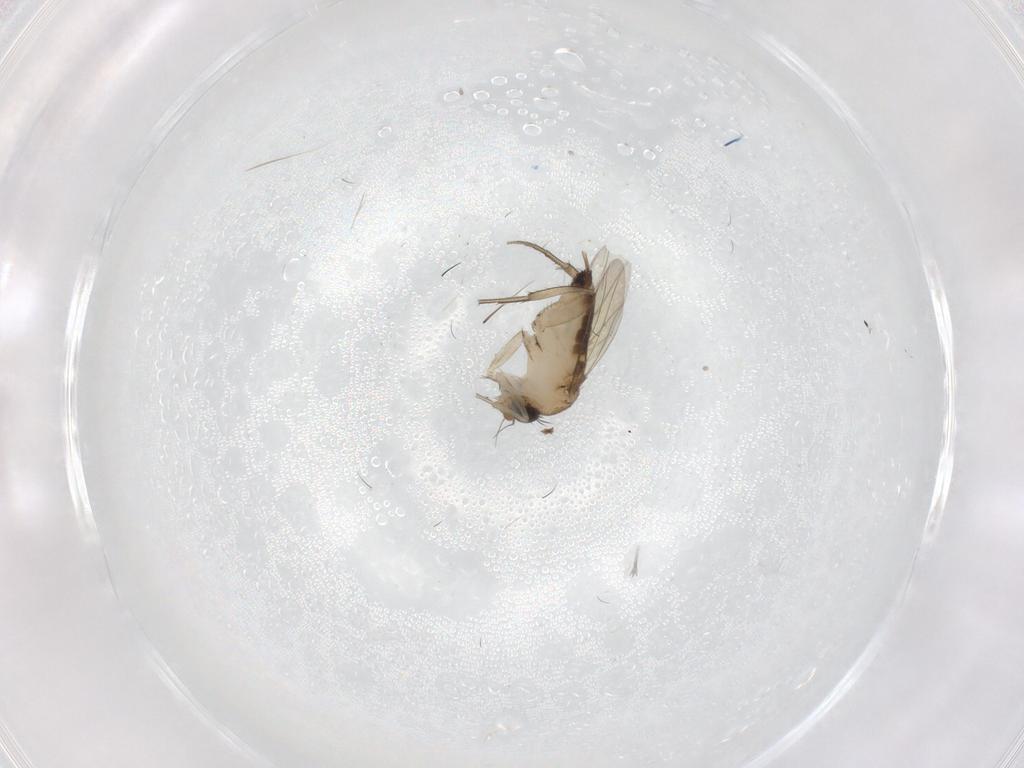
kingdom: Animalia
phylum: Arthropoda
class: Insecta
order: Diptera
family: Phoridae
